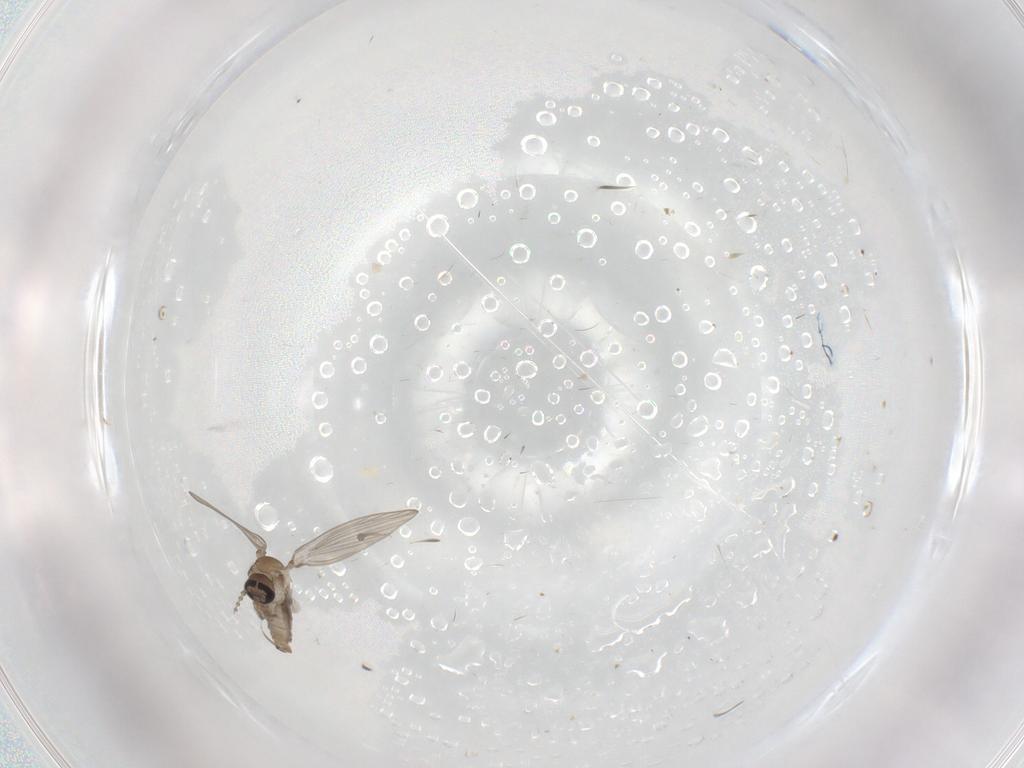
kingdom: Animalia
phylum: Arthropoda
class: Insecta
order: Diptera
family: Psychodidae
